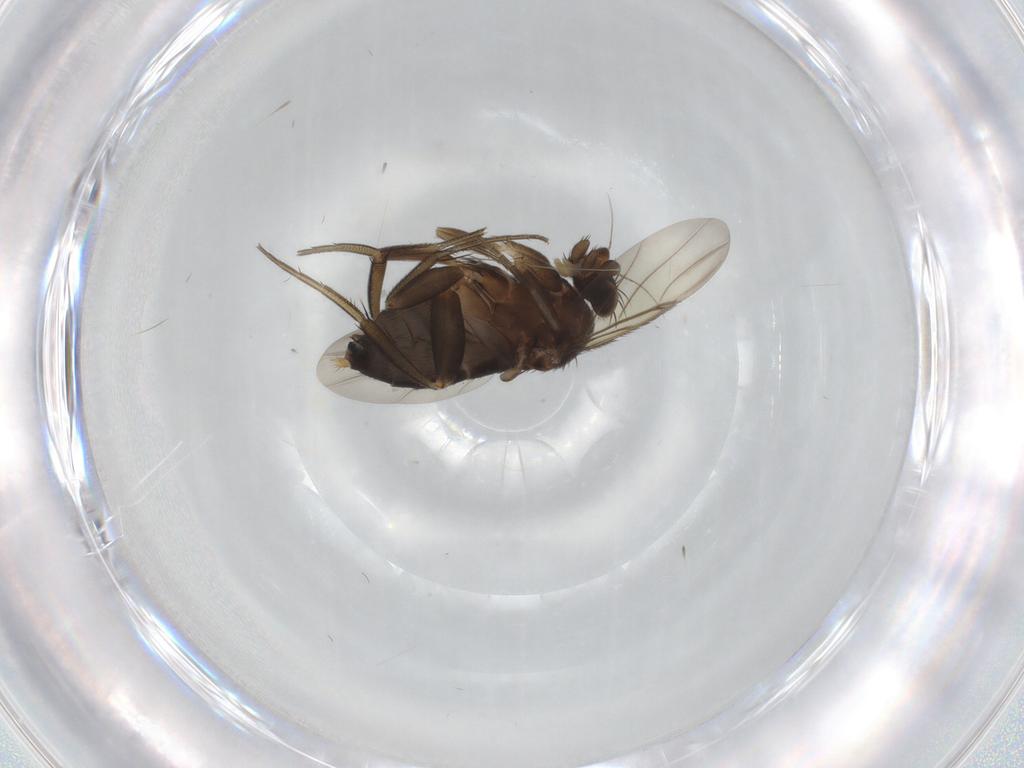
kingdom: Animalia
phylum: Arthropoda
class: Insecta
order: Diptera
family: Phoridae
